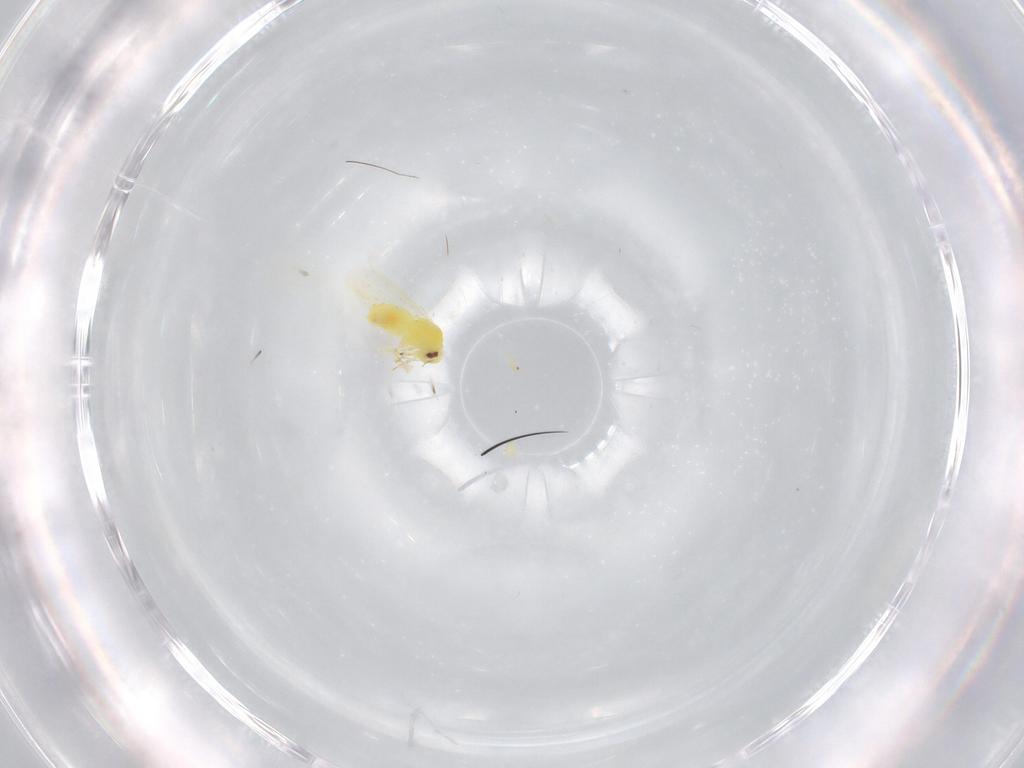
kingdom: Animalia
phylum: Arthropoda
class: Insecta
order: Hemiptera
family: Aleyrodidae
